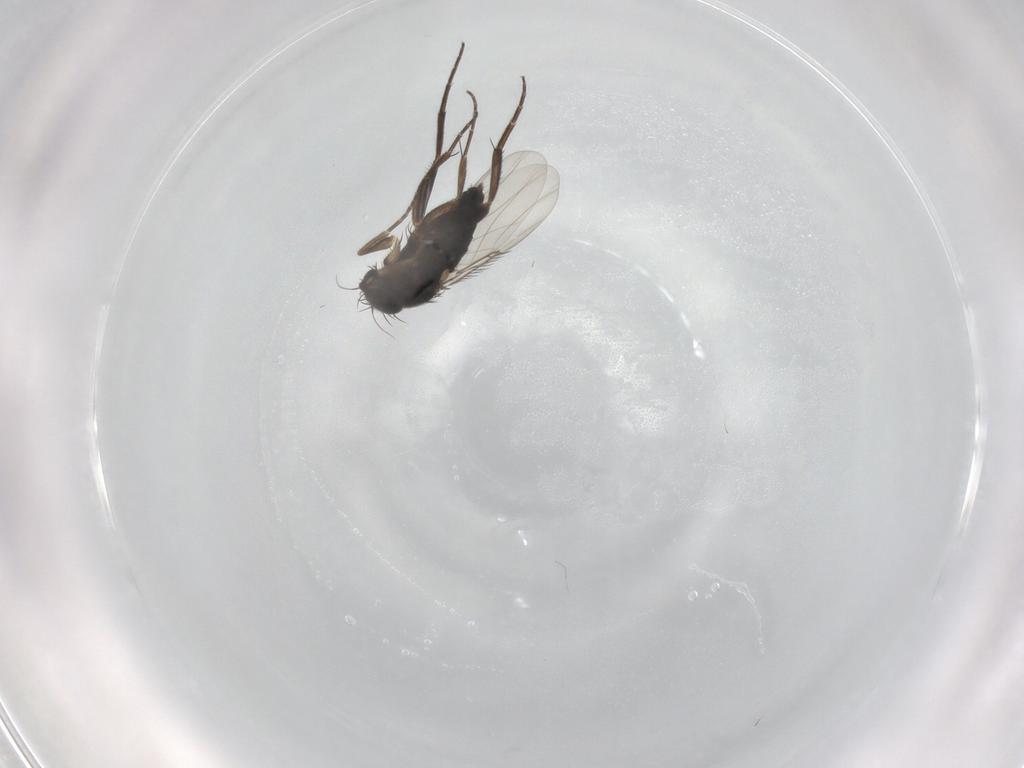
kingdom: Animalia
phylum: Arthropoda
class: Insecta
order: Diptera
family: Phoridae
